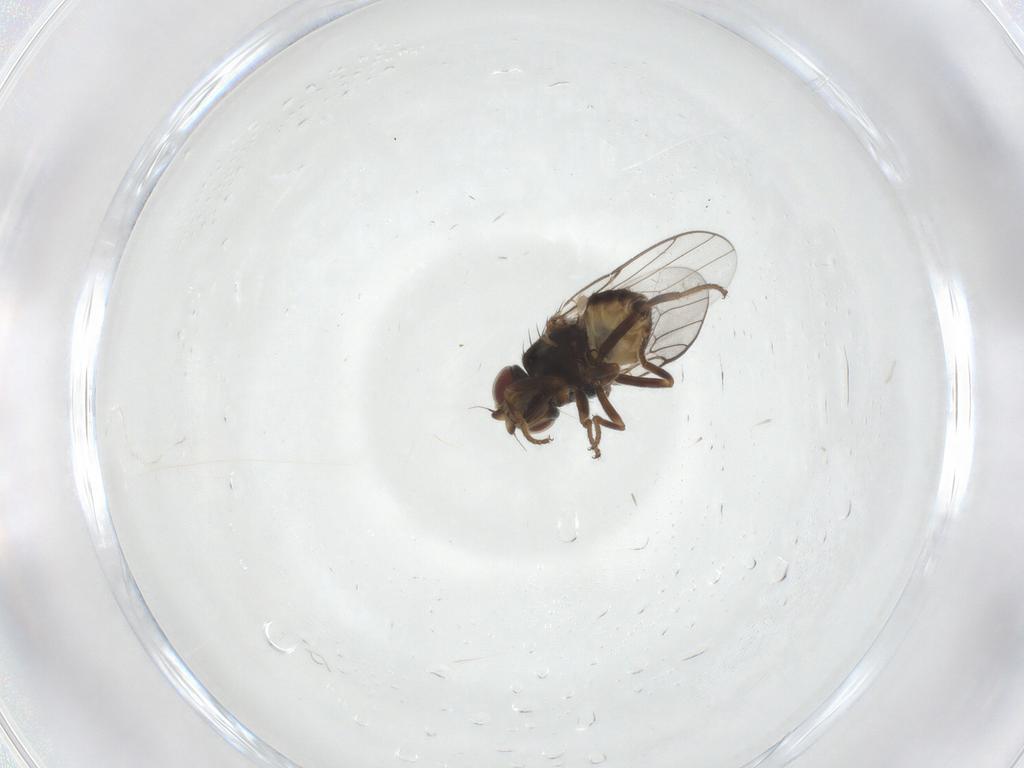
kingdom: Animalia
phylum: Arthropoda
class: Insecta
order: Diptera
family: Chloropidae
